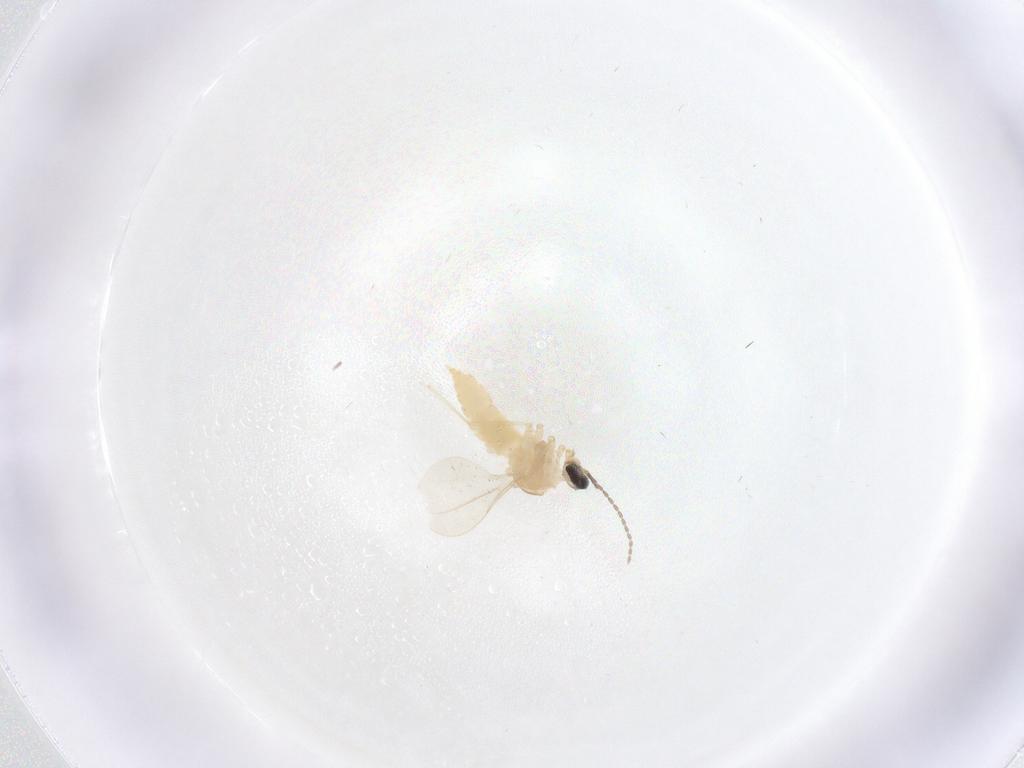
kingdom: Animalia
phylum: Arthropoda
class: Insecta
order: Diptera
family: Cecidomyiidae
